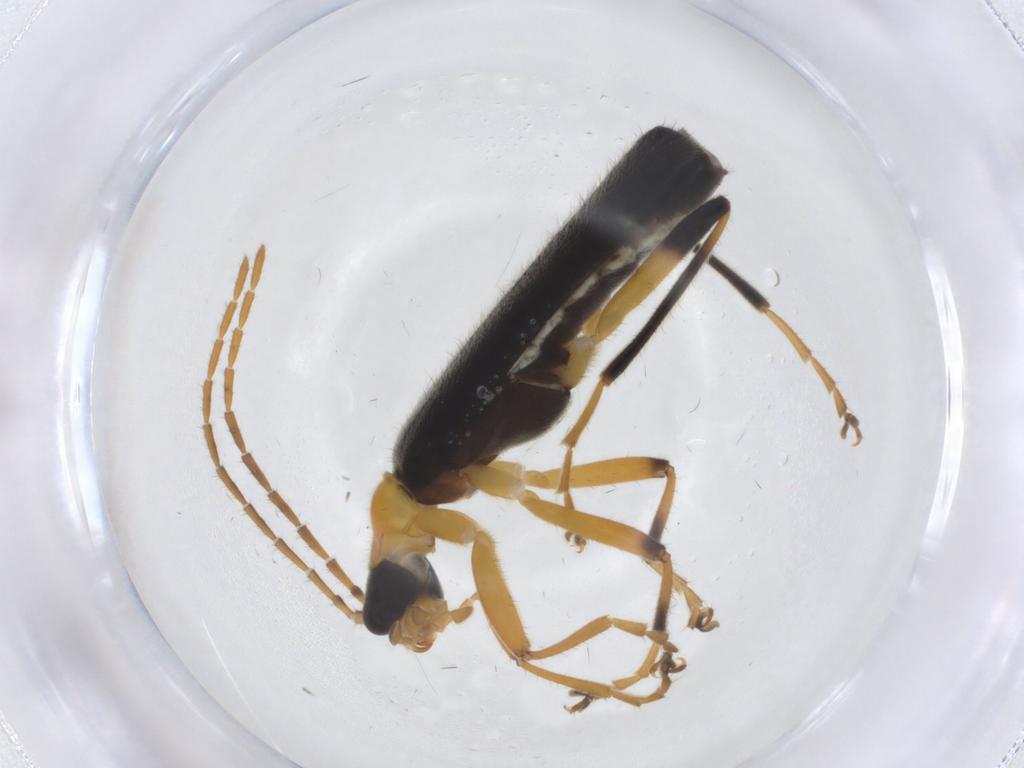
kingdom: Animalia
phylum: Arthropoda
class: Insecta
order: Coleoptera
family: Cantharidae
